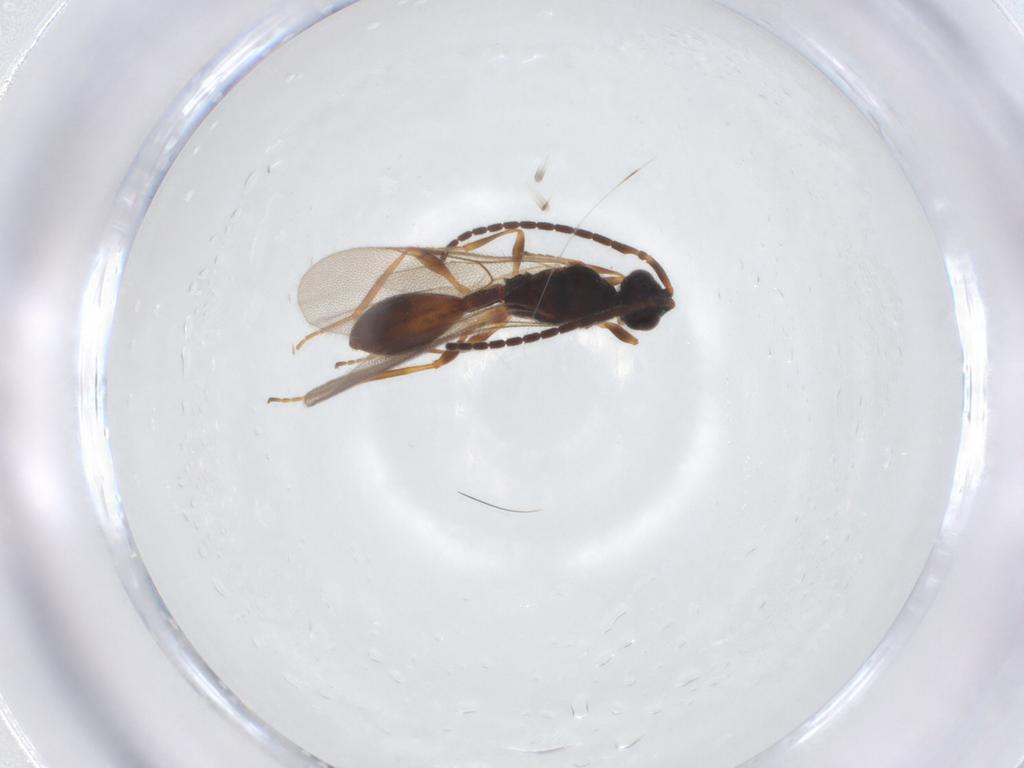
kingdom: Animalia
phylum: Arthropoda
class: Insecta
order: Hymenoptera
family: Diapriidae
